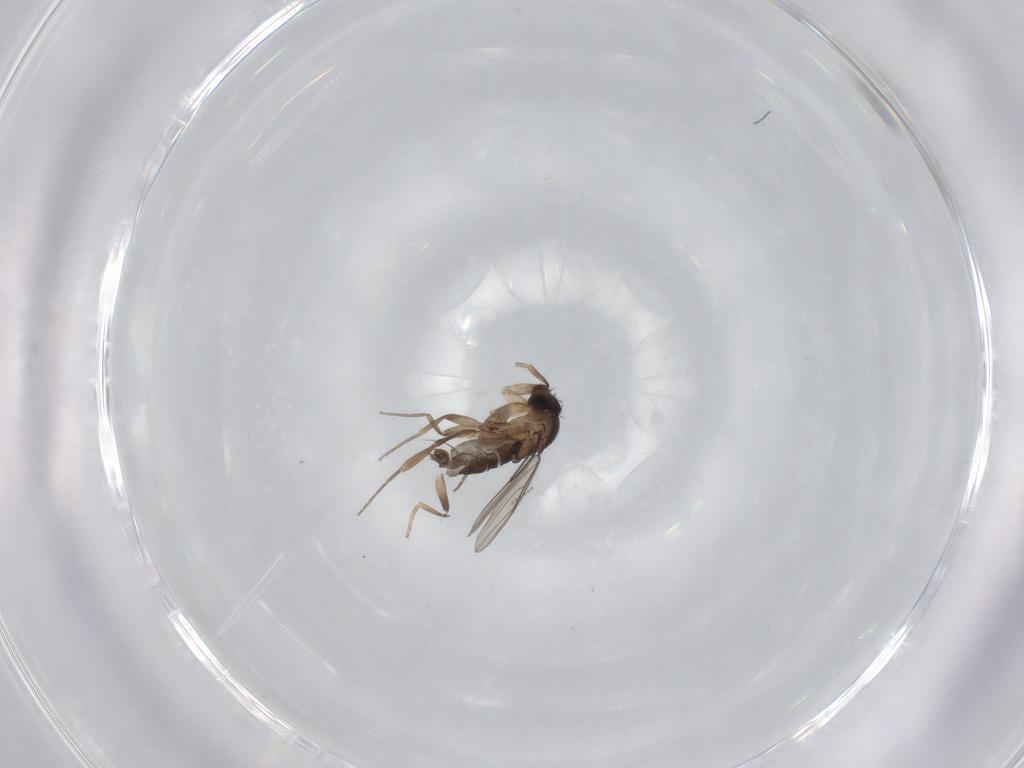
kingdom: Animalia
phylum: Arthropoda
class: Insecta
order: Diptera
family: Phoridae
